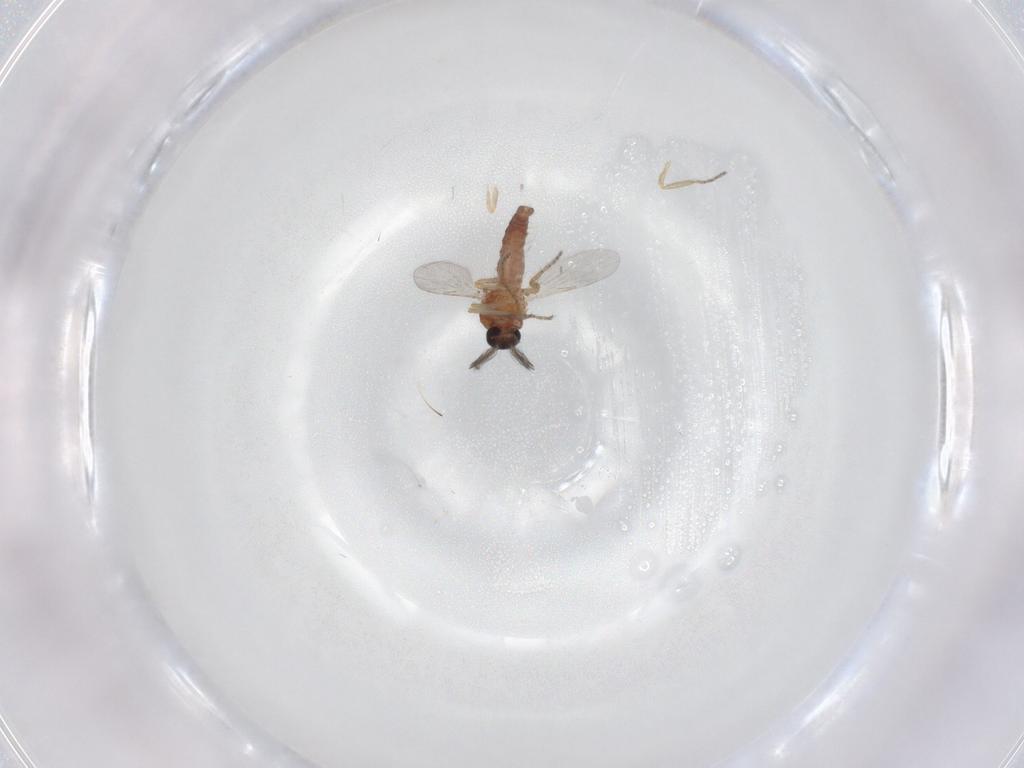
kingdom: Animalia
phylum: Arthropoda
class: Insecta
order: Diptera
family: Ceratopogonidae
